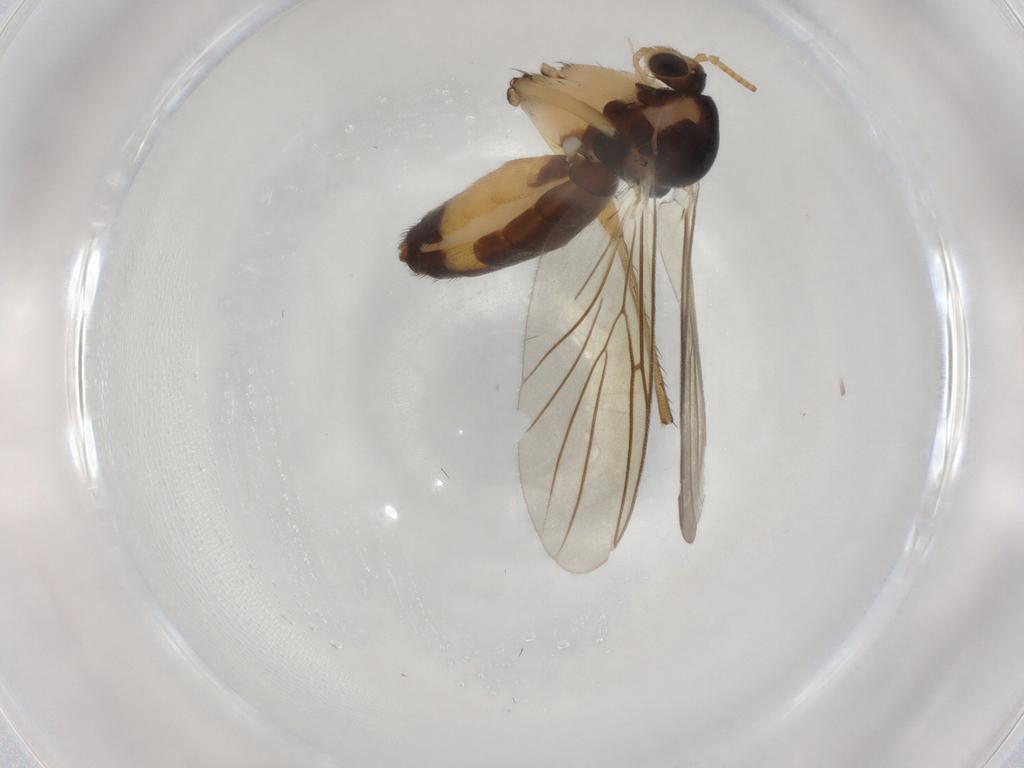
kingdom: Animalia
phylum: Arthropoda
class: Insecta
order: Diptera
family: Mycetophilidae
